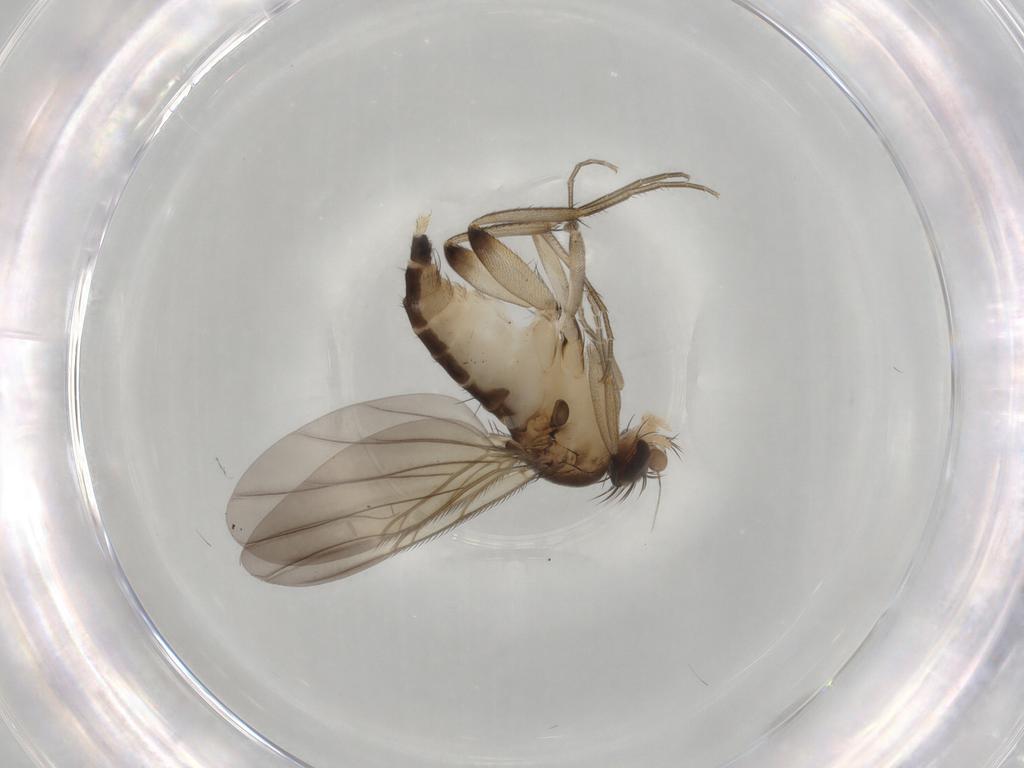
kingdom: Animalia
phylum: Arthropoda
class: Insecta
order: Diptera
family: Phoridae
